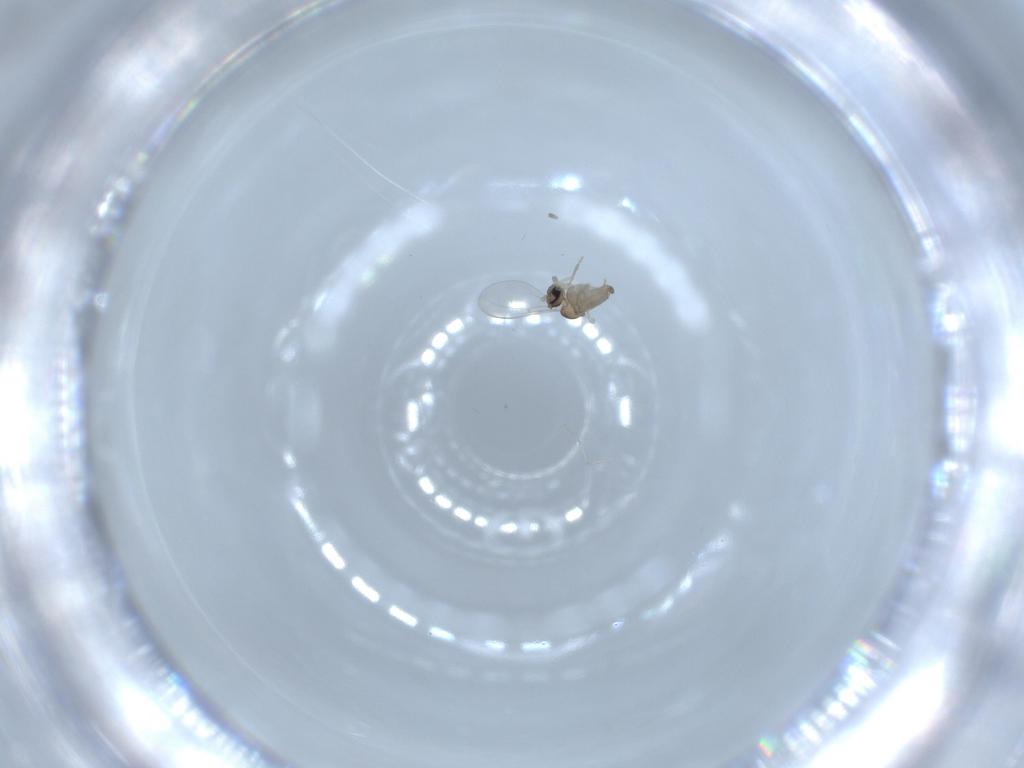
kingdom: Animalia
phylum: Arthropoda
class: Insecta
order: Diptera
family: Cecidomyiidae
